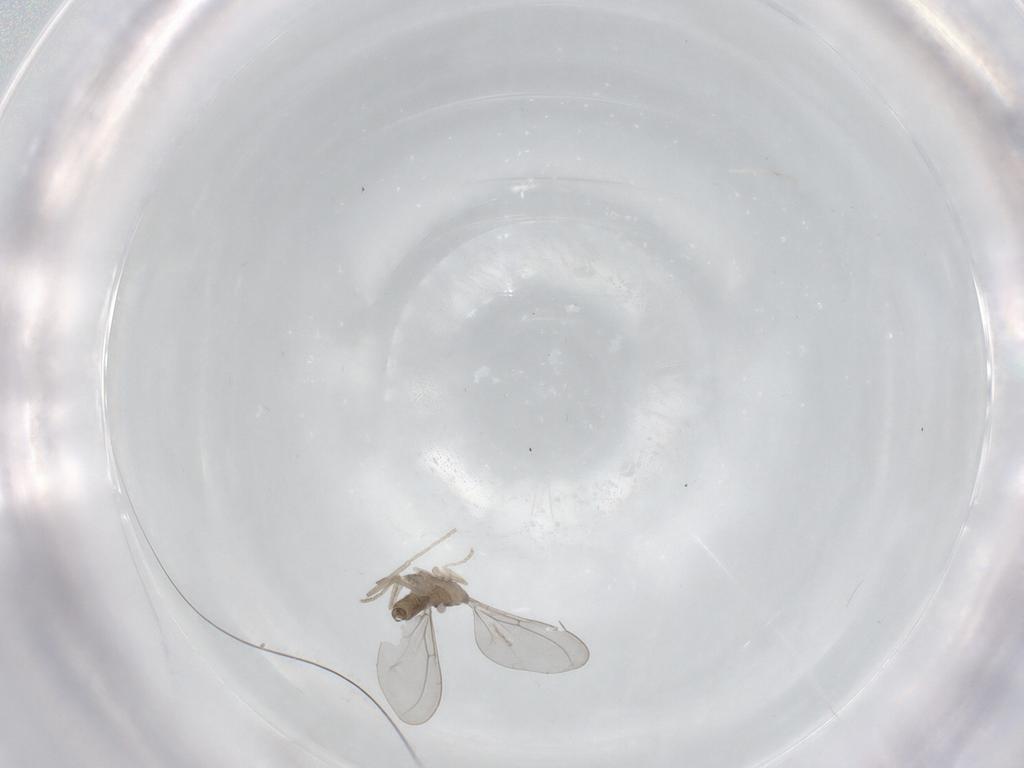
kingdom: Animalia
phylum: Arthropoda
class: Insecta
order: Diptera
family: Cecidomyiidae
